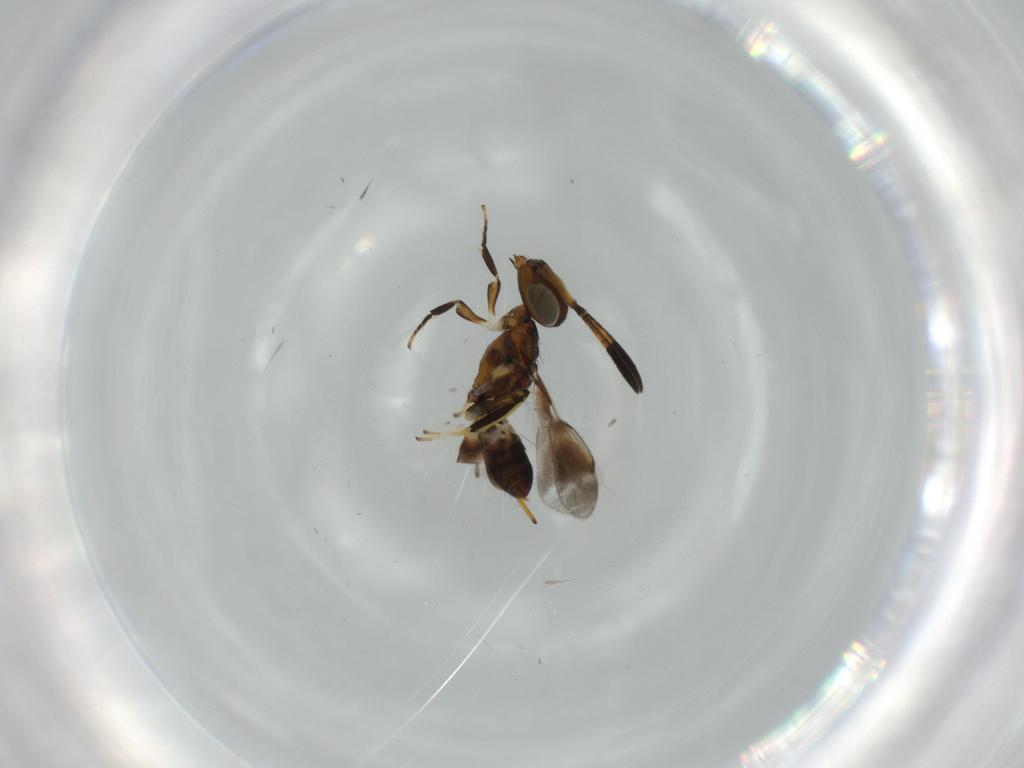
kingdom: Animalia
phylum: Arthropoda
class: Insecta
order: Hymenoptera
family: Eupelmidae
